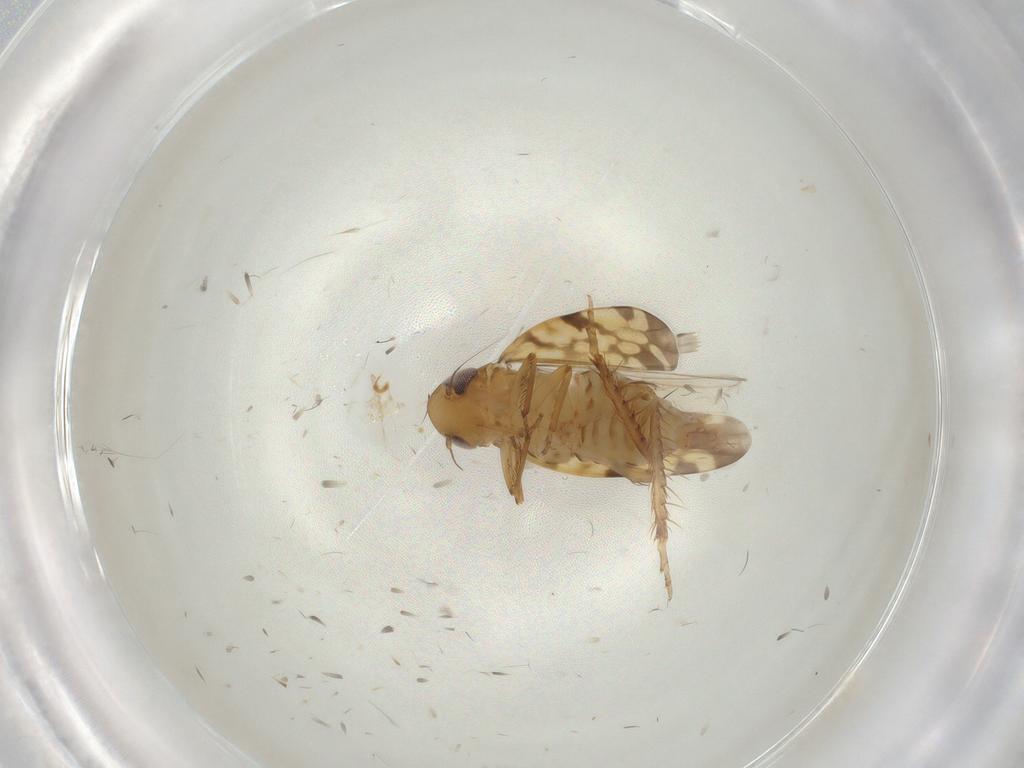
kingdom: Animalia
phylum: Arthropoda
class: Insecta
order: Hemiptera
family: Cicadellidae
